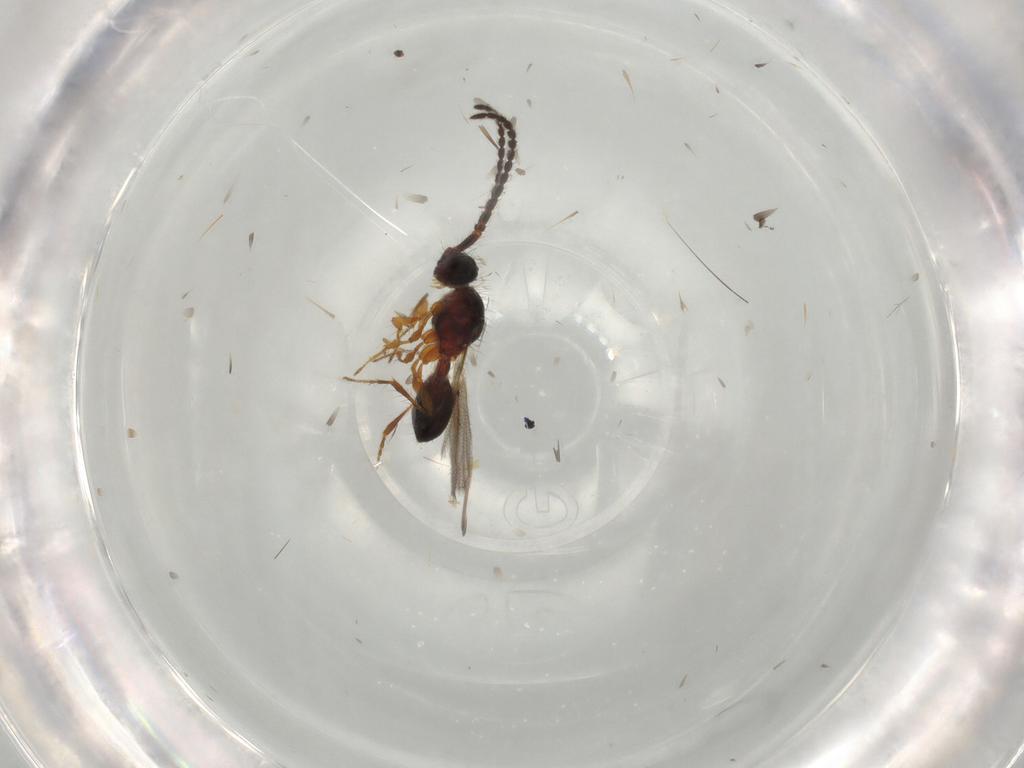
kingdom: Animalia
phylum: Arthropoda
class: Insecta
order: Hymenoptera
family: Diapriidae
